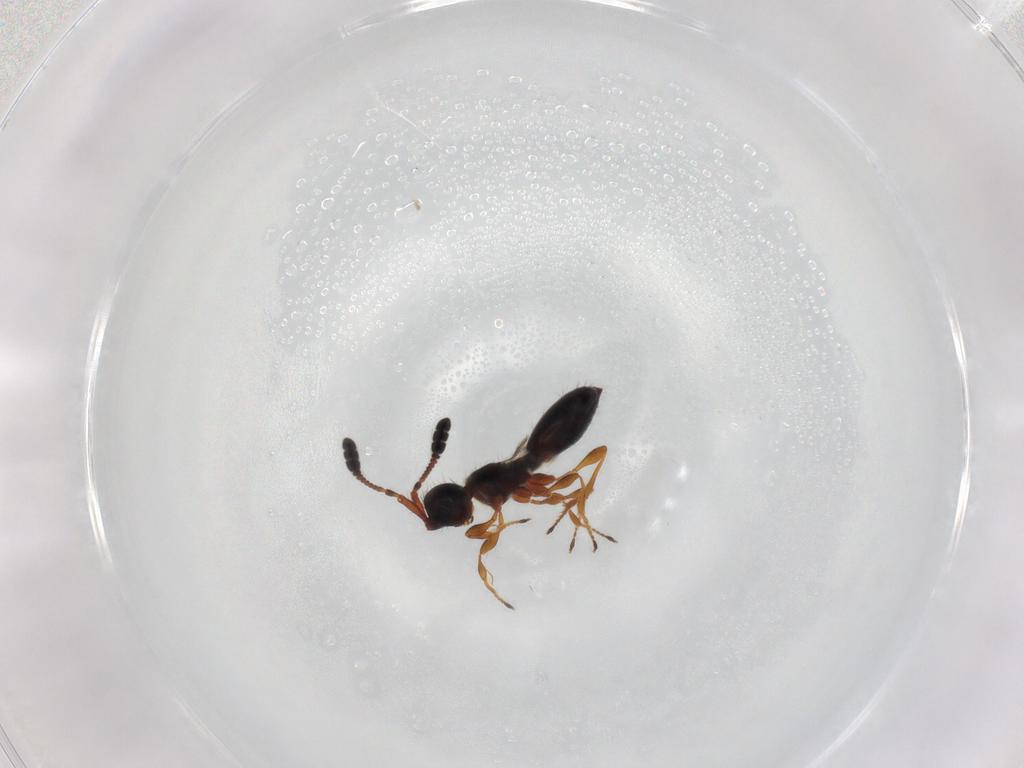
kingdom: Animalia
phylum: Arthropoda
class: Insecta
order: Hymenoptera
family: Diapriidae
